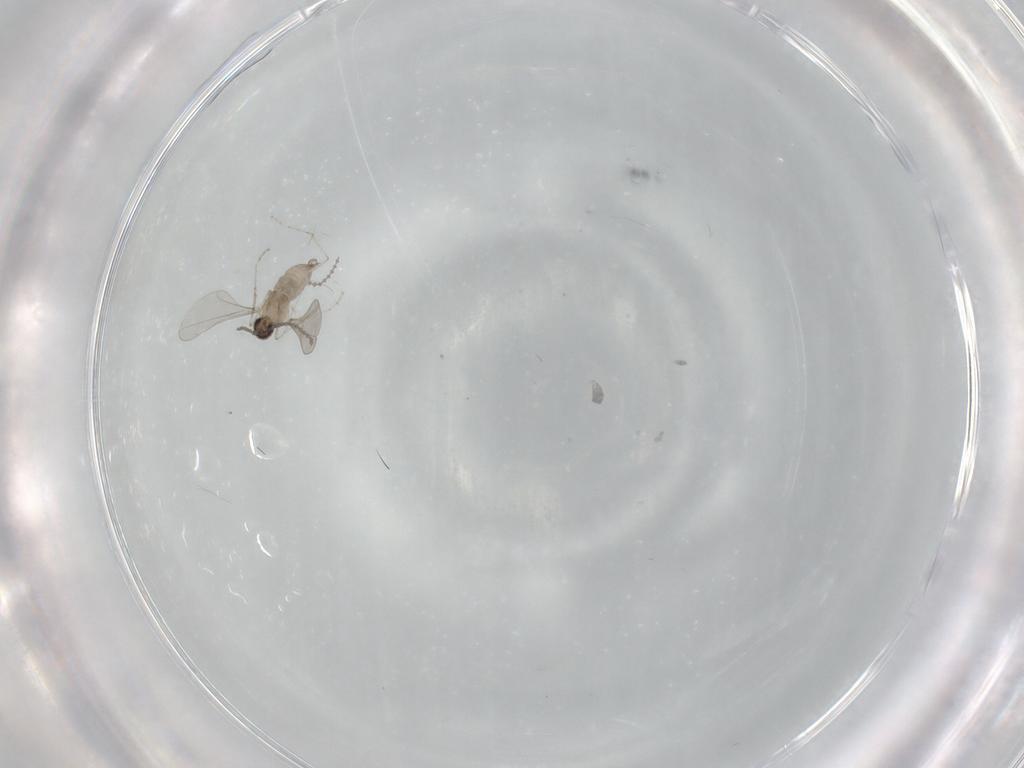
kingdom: Animalia
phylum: Arthropoda
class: Insecta
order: Diptera
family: Cecidomyiidae
